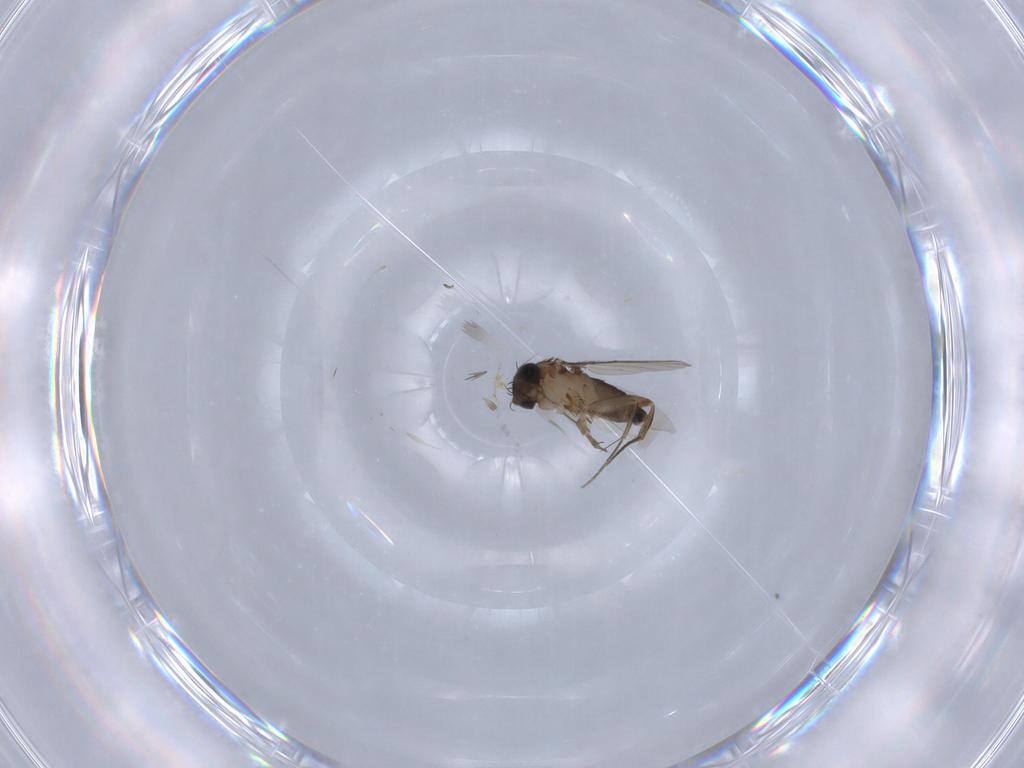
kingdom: Animalia
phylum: Arthropoda
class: Insecta
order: Diptera
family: Phoridae
